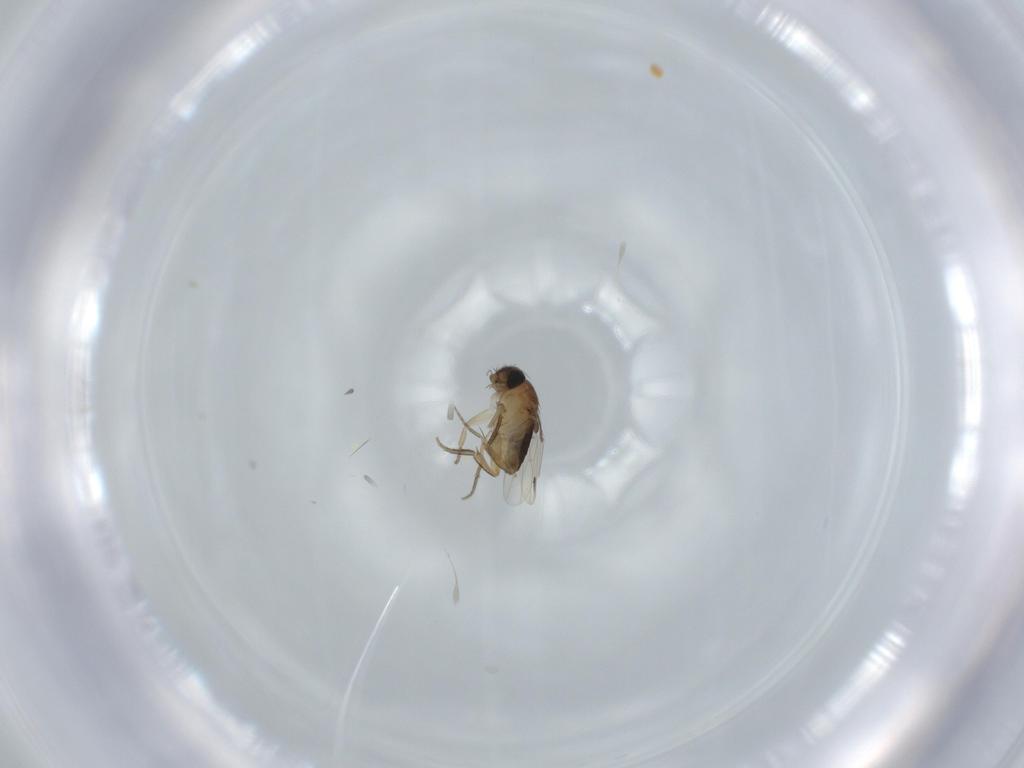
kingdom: Animalia
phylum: Arthropoda
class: Insecta
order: Diptera
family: Phoridae
